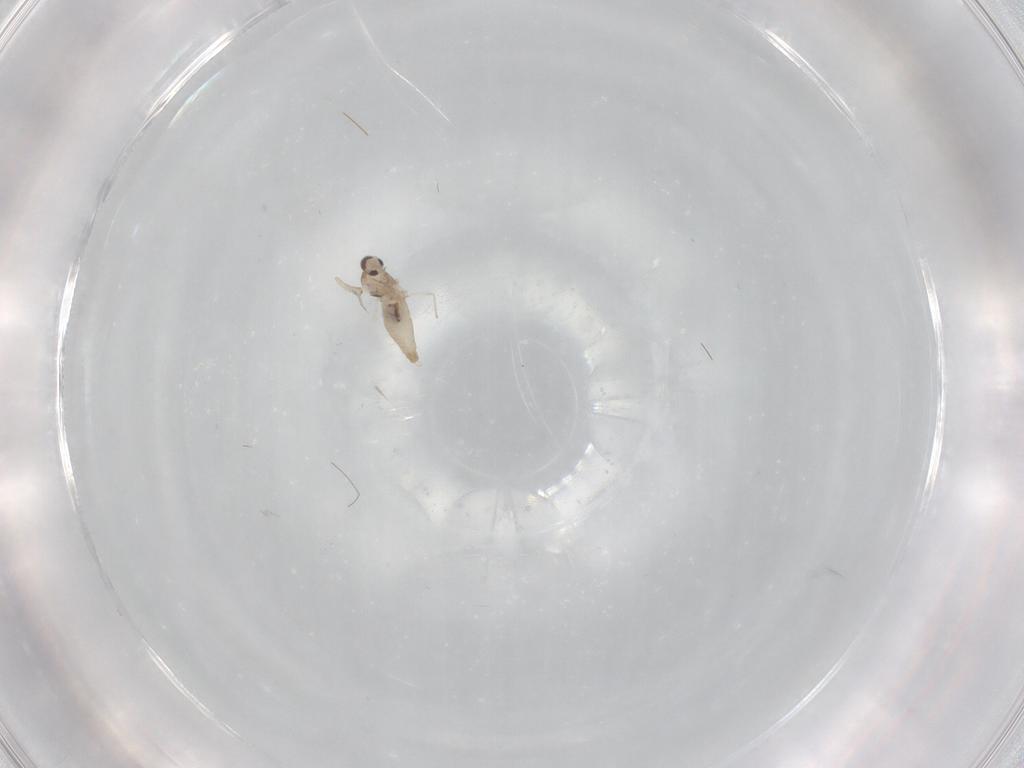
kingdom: Animalia
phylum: Arthropoda
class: Insecta
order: Diptera
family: Cecidomyiidae
